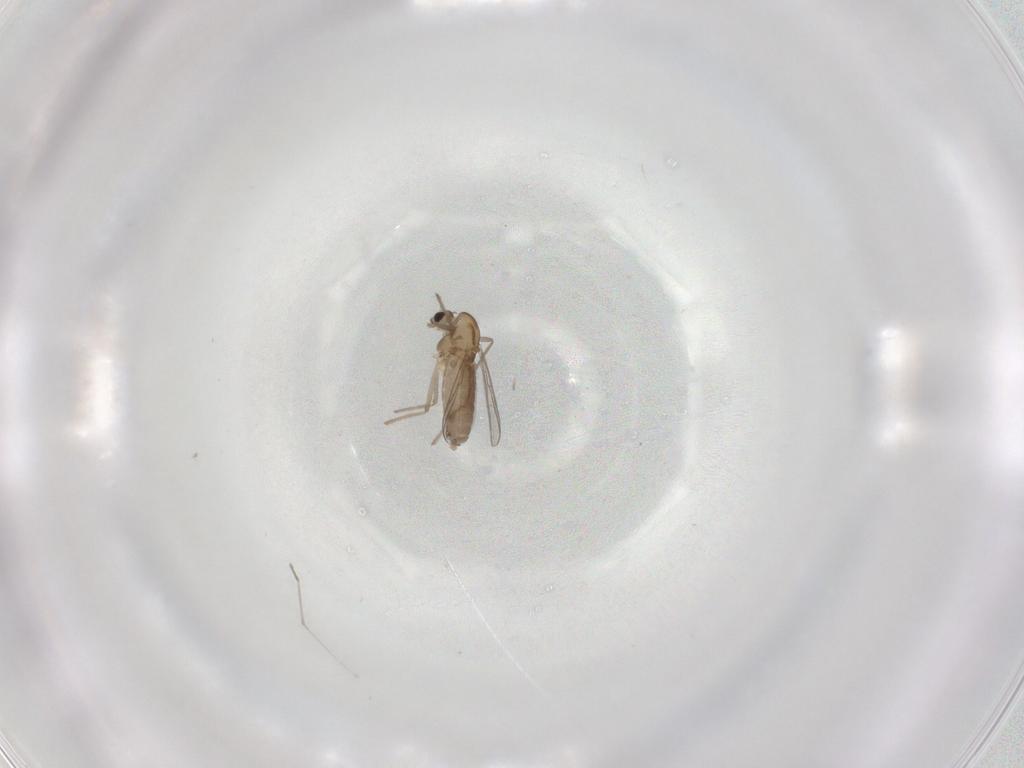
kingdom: Animalia
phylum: Arthropoda
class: Insecta
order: Diptera
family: Chironomidae
